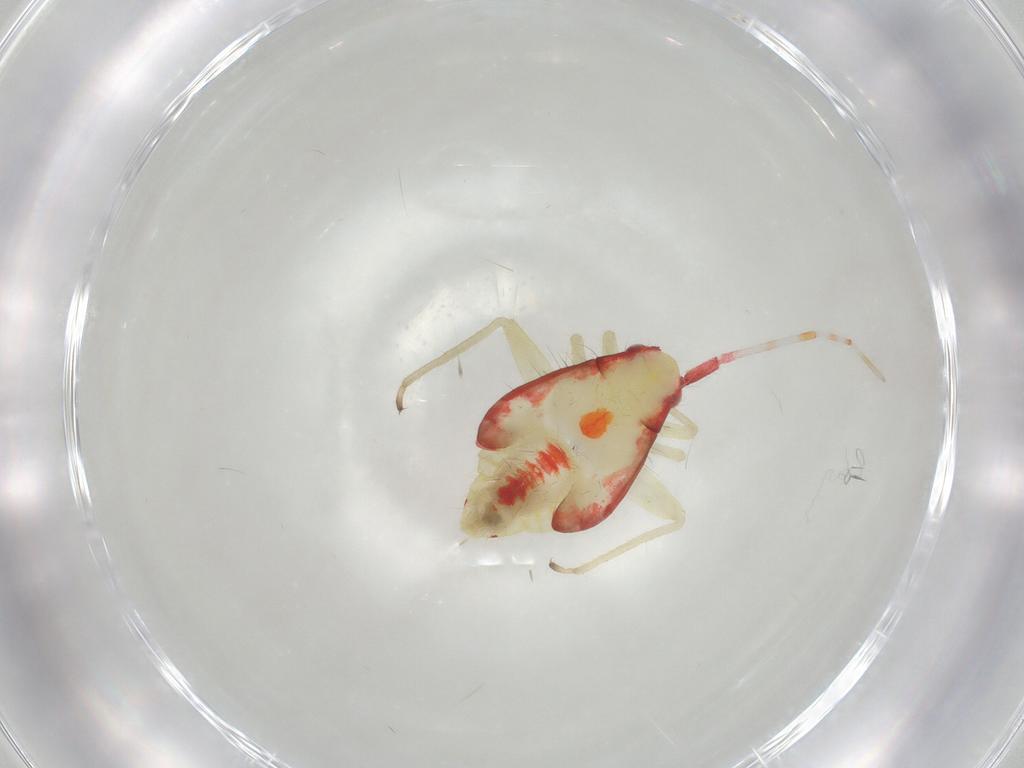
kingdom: Animalia
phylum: Arthropoda
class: Insecta
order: Hemiptera
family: Miridae
